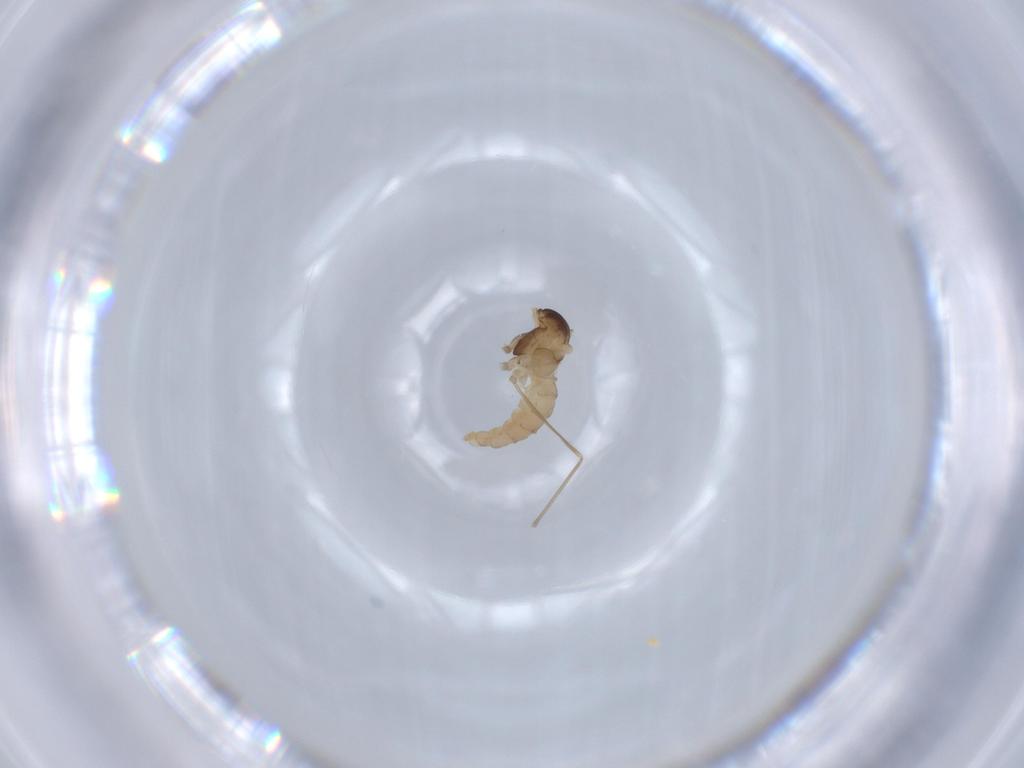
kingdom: Animalia
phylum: Arthropoda
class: Insecta
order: Diptera
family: Cecidomyiidae
